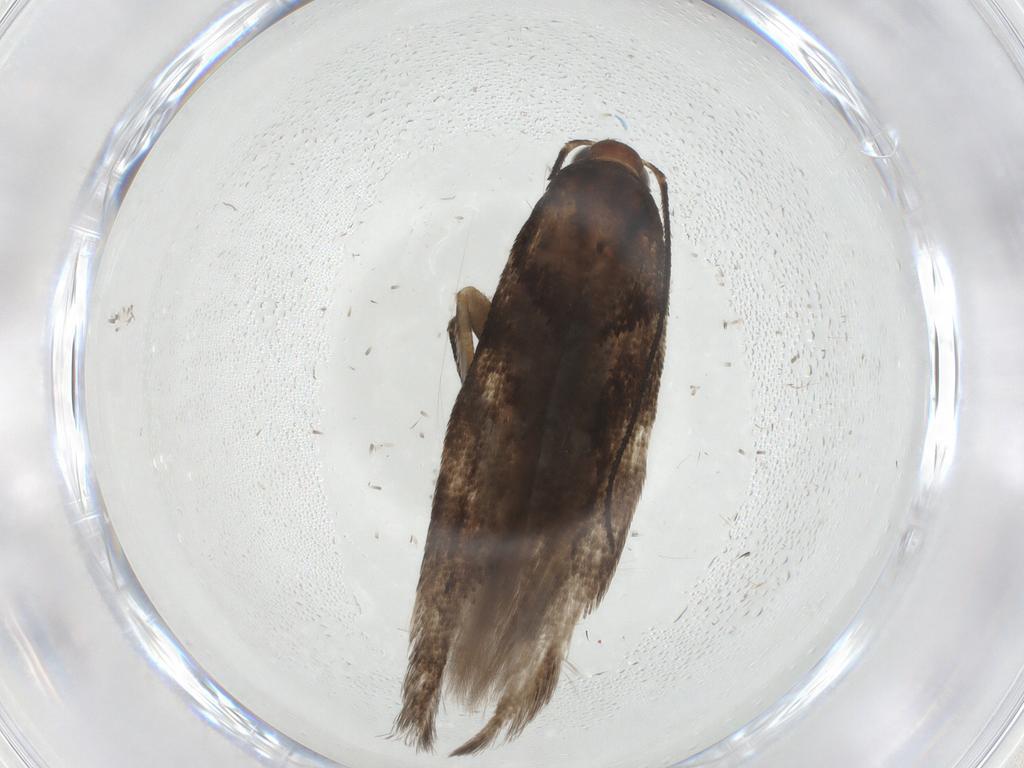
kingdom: Animalia
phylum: Arthropoda
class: Insecta
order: Lepidoptera
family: Gelechiidae
